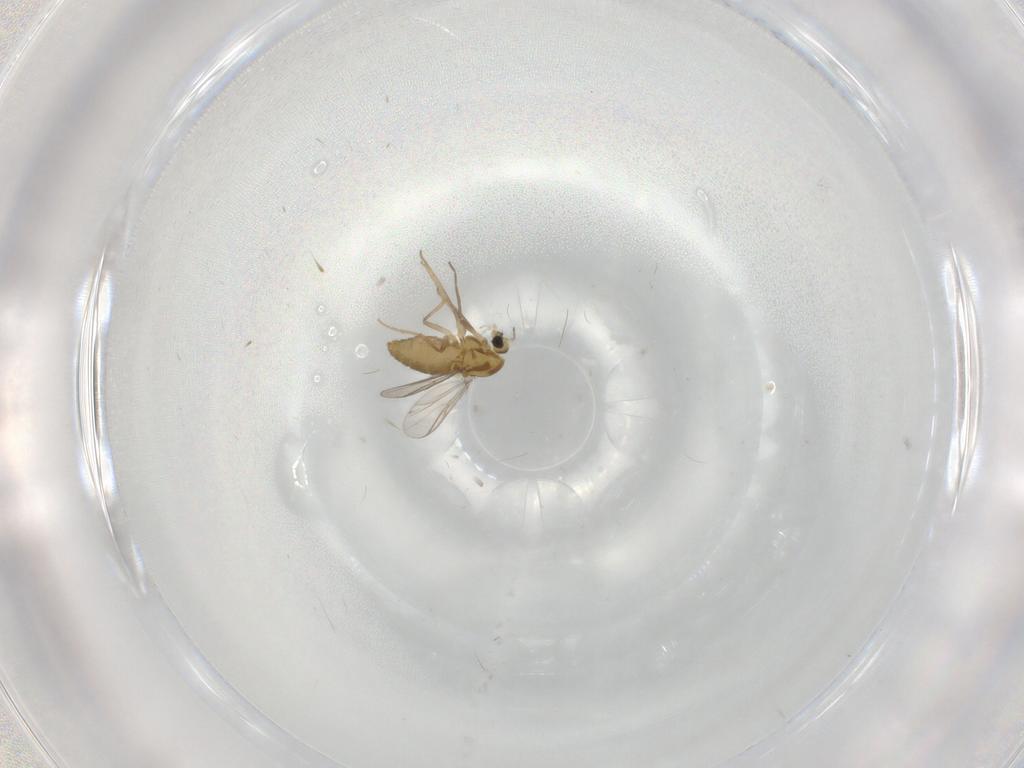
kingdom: Animalia
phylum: Arthropoda
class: Insecta
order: Diptera
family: Chironomidae
